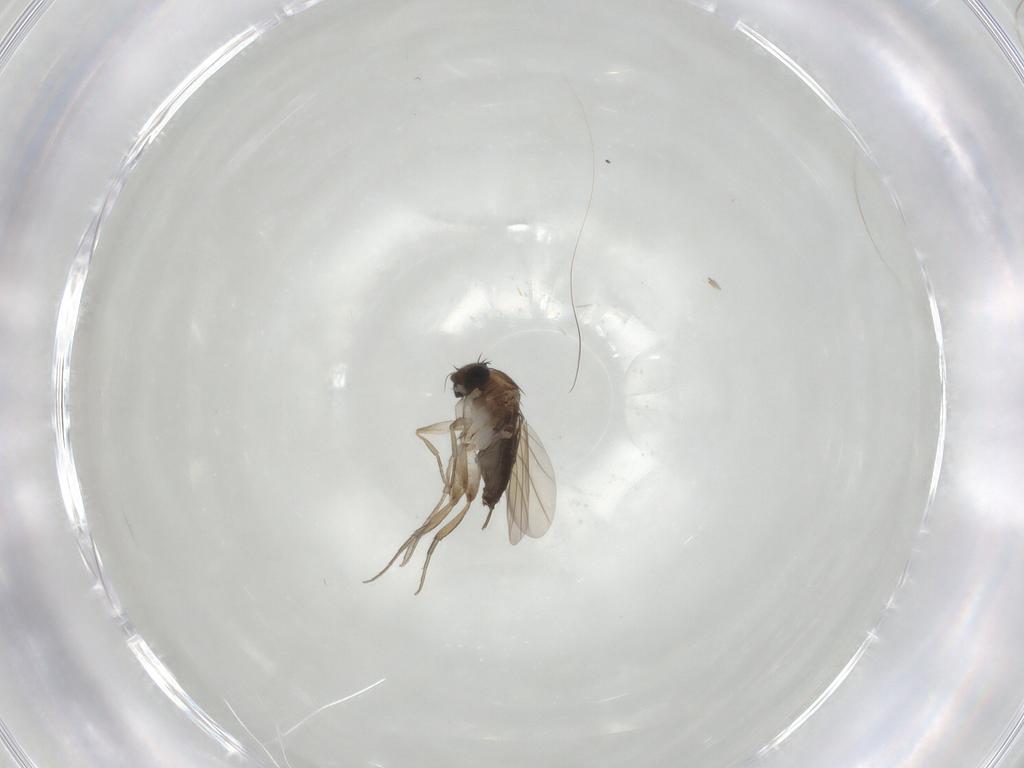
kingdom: Animalia
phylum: Arthropoda
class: Insecta
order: Diptera
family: Phoridae
